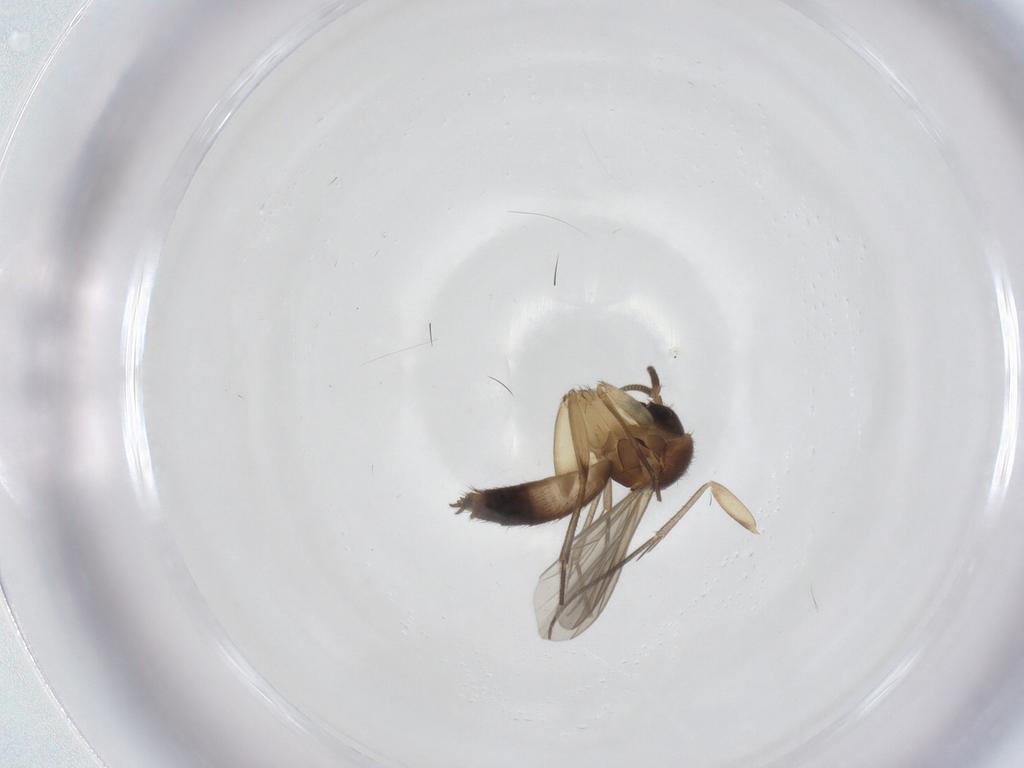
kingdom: Animalia
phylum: Arthropoda
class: Insecta
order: Diptera
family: Mycetophilidae
